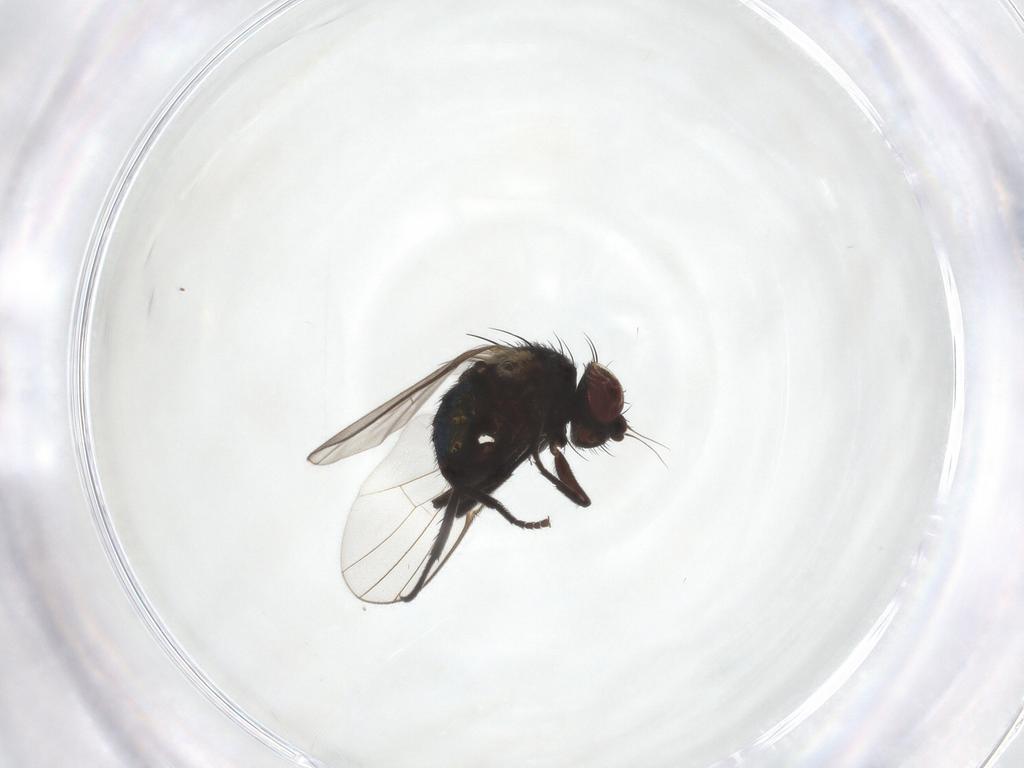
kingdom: Animalia
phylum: Arthropoda
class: Insecta
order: Diptera
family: Agromyzidae
